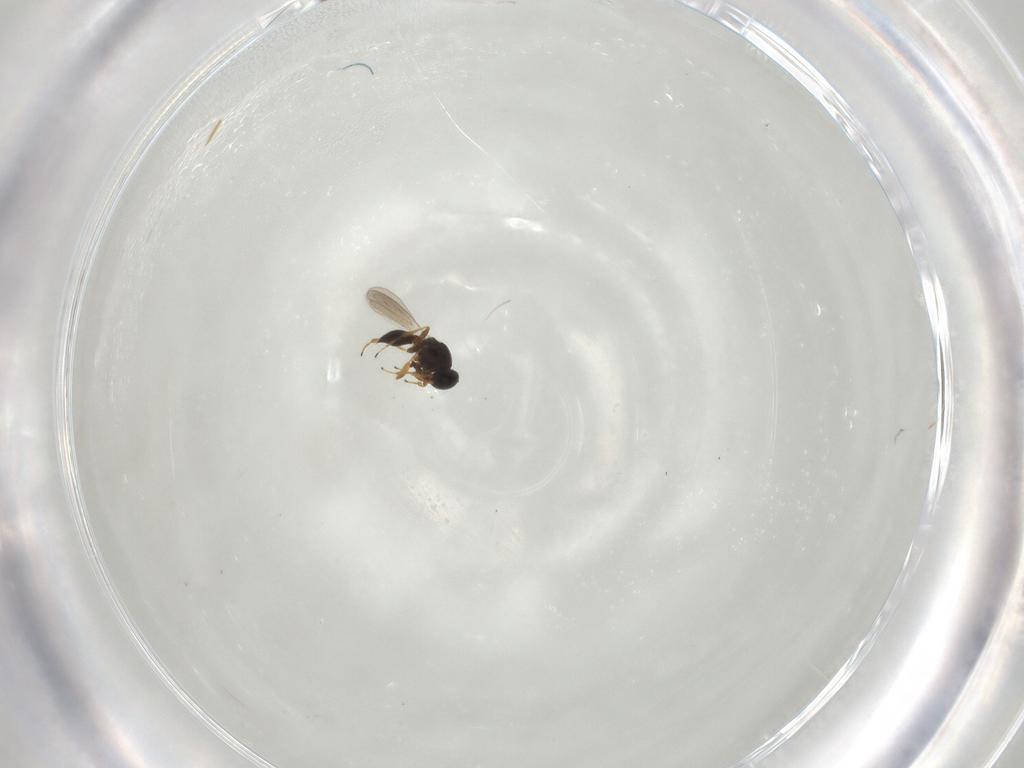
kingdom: Animalia
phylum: Arthropoda
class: Insecta
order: Hymenoptera
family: Platygastridae
